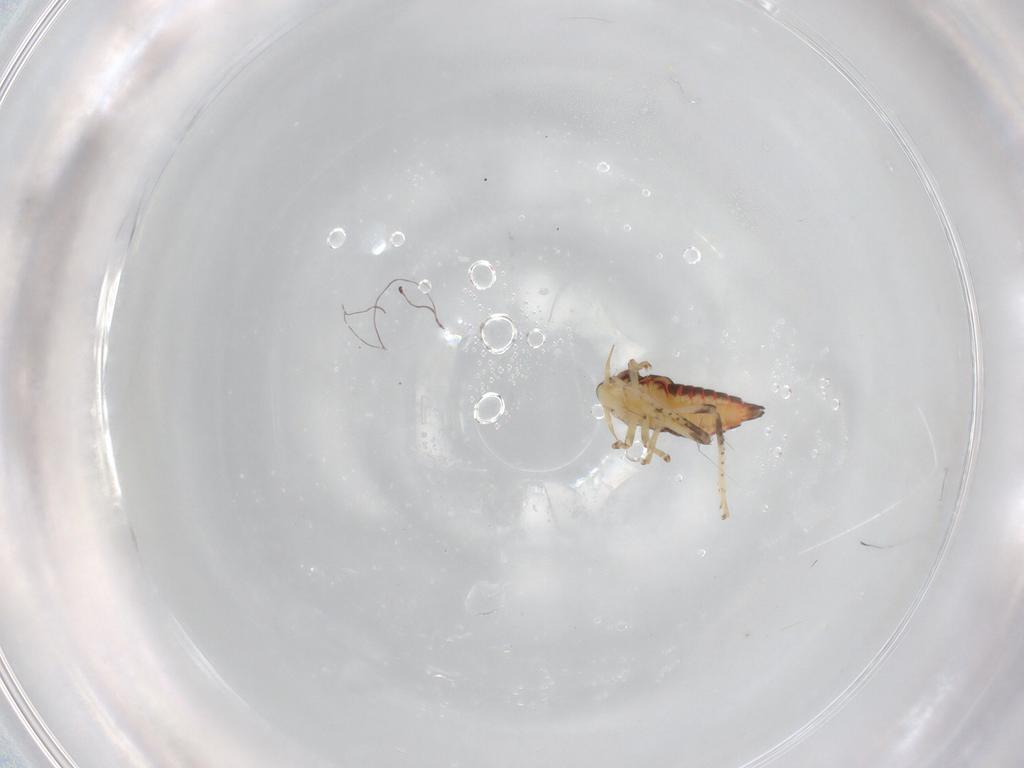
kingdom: Animalia
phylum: Arthropoda
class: Insecta
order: Hemiptera
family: Cicadellidae
